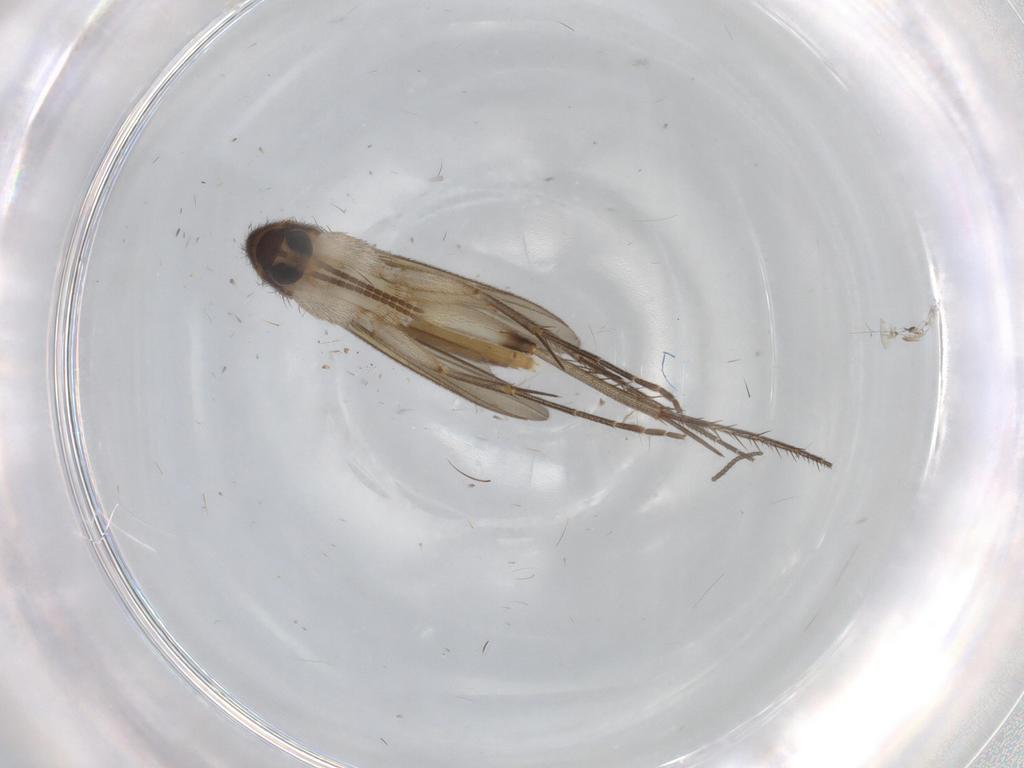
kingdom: Animalia
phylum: Arthropoda
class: Insecta
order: Diptera
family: Mycetophilidae
